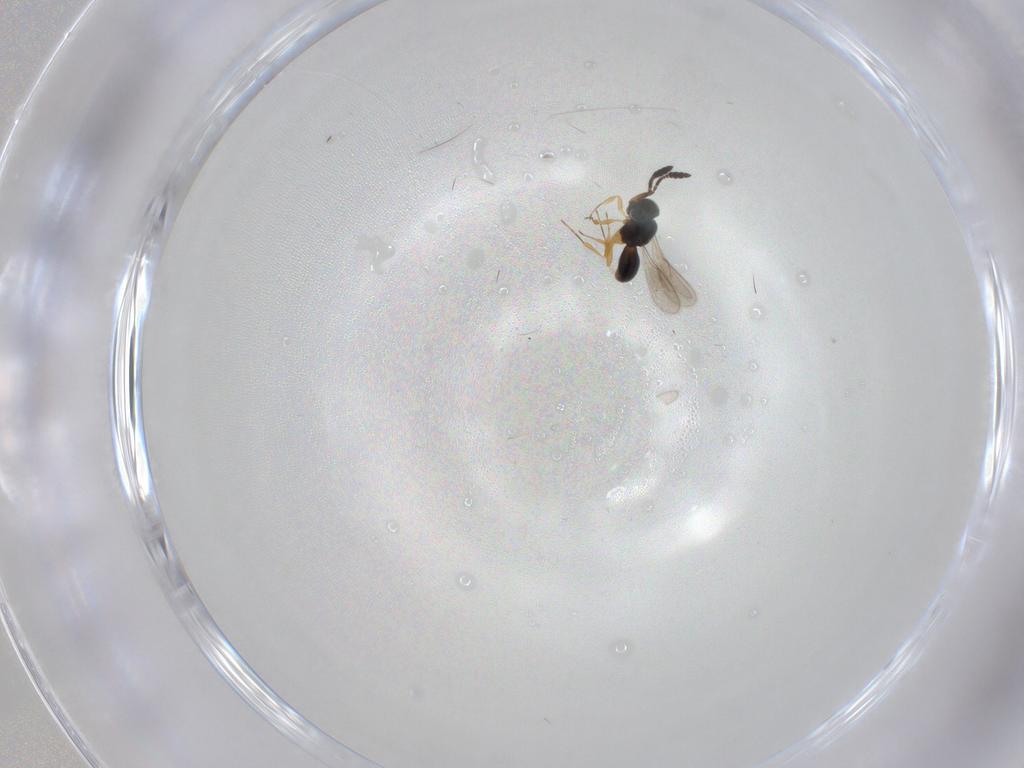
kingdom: Animalia
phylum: Arthropoda
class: Insecta
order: Hymenoptera
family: Scelionidae
